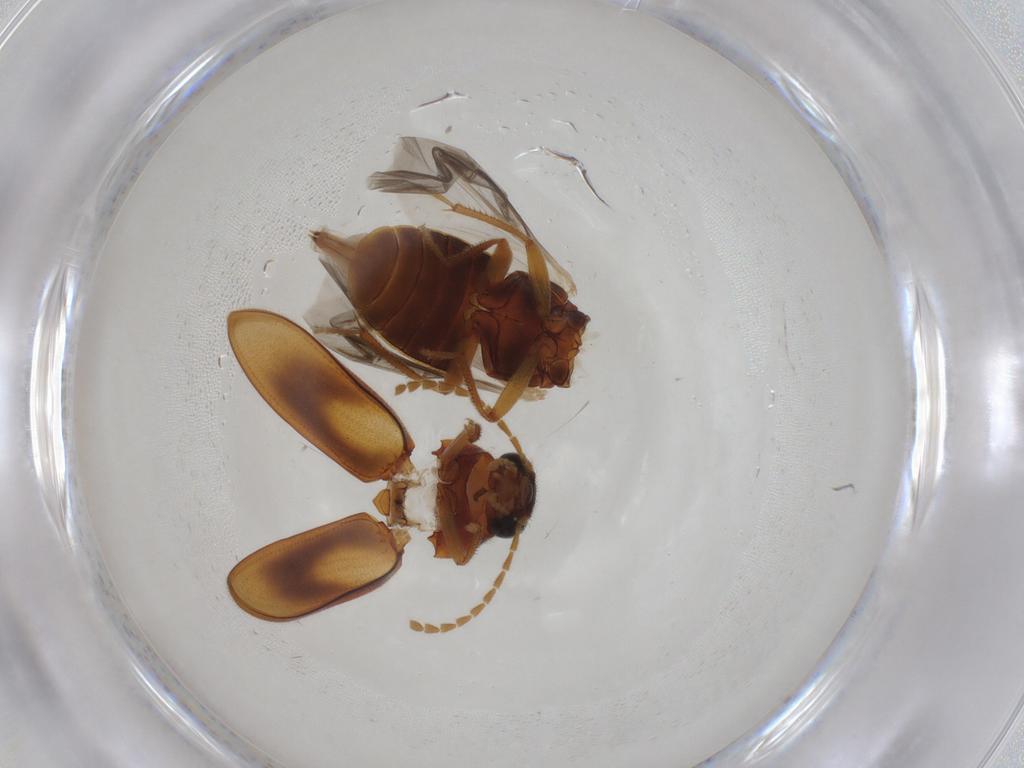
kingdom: Animalia
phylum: Arthropoda
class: Insecta
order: Coleoptera
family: Ptilodactylidae
